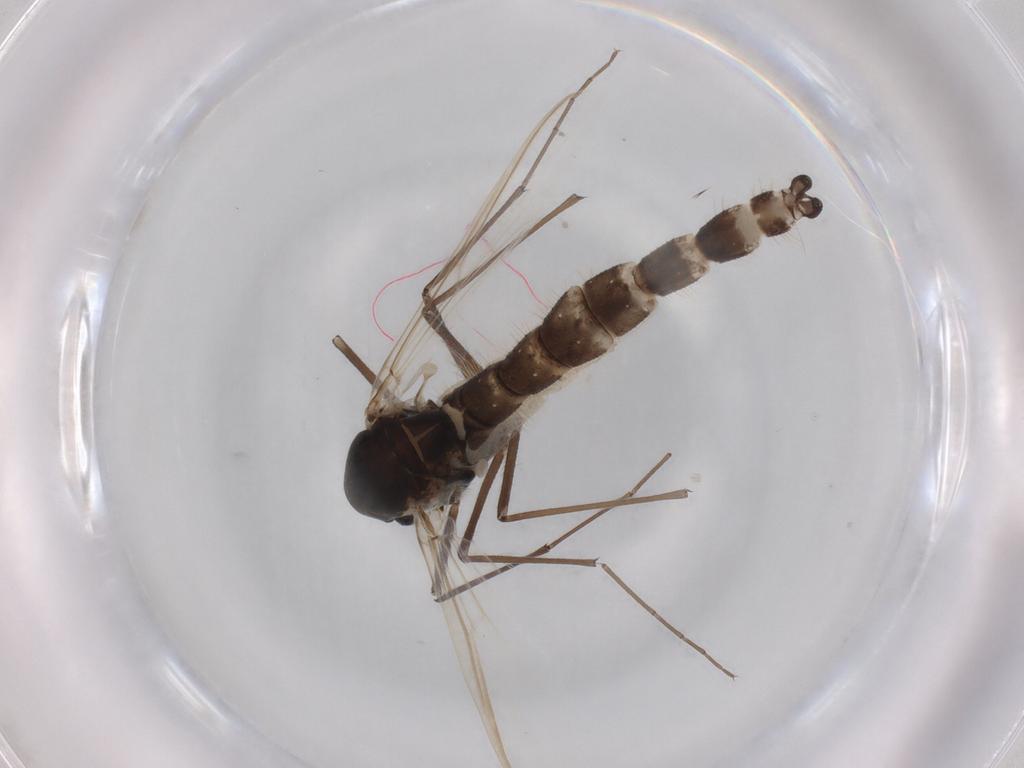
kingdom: Animalia
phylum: Arthropoda
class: Insecta
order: Diptera
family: Chironomidae
